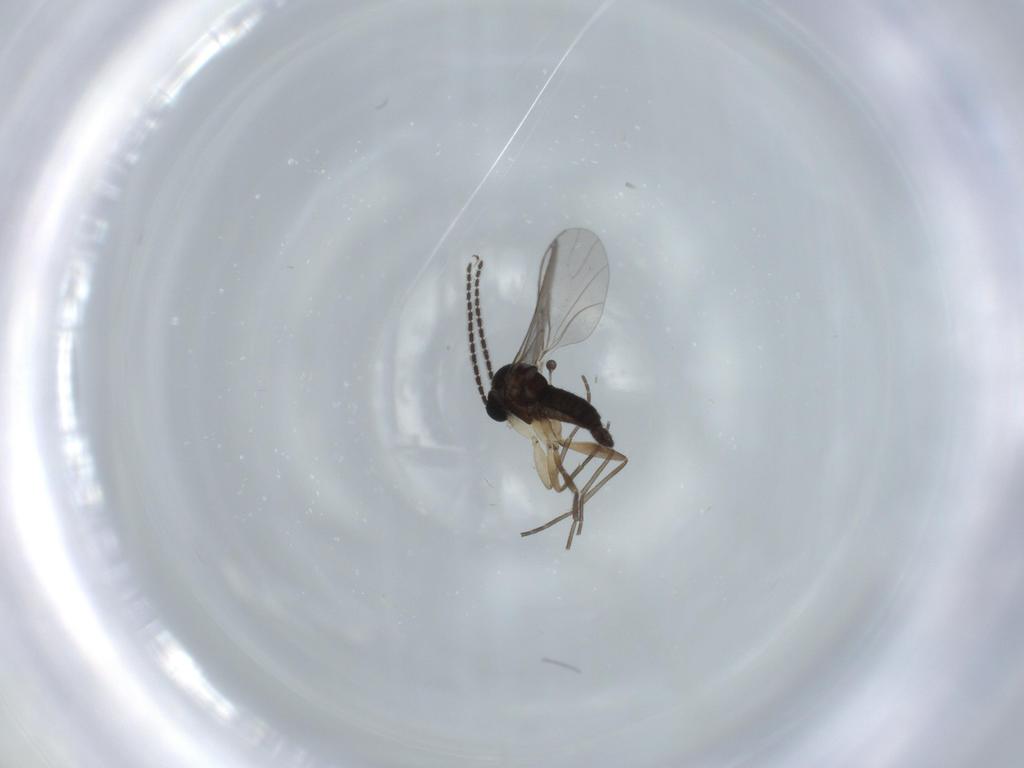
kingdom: Animalia
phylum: Arthropoda
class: Insecta
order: Diptera
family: Sciaridae
